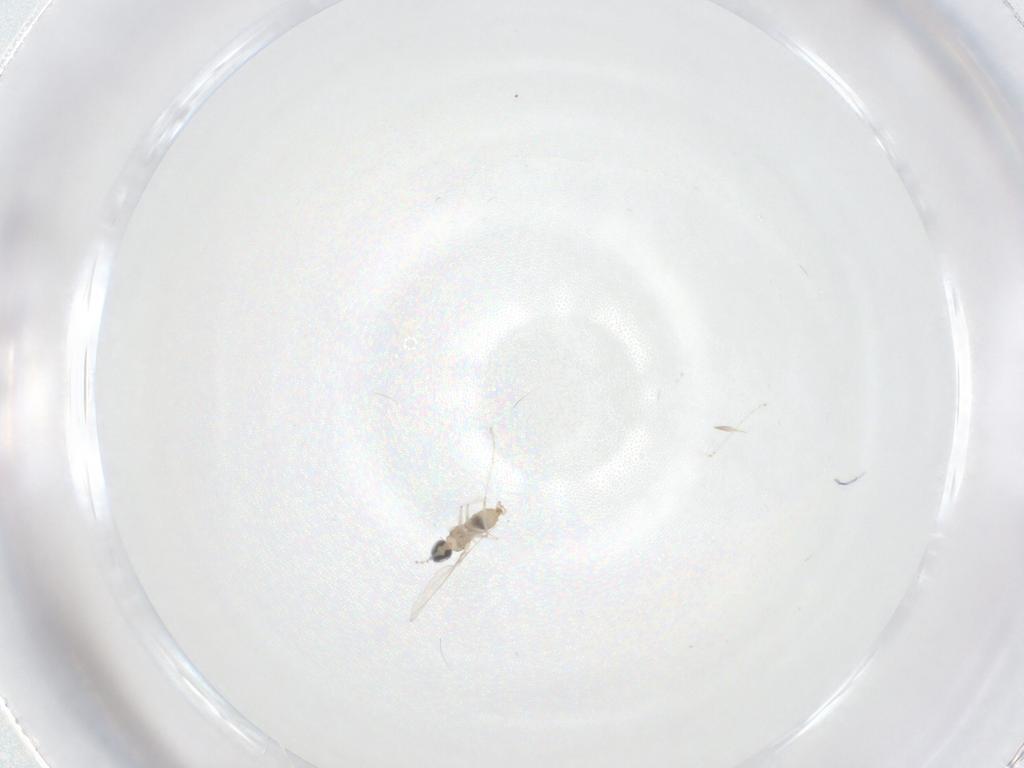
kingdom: Animalia
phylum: Arthropoda
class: Insecta
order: Diptera
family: Cecidomyiidae
